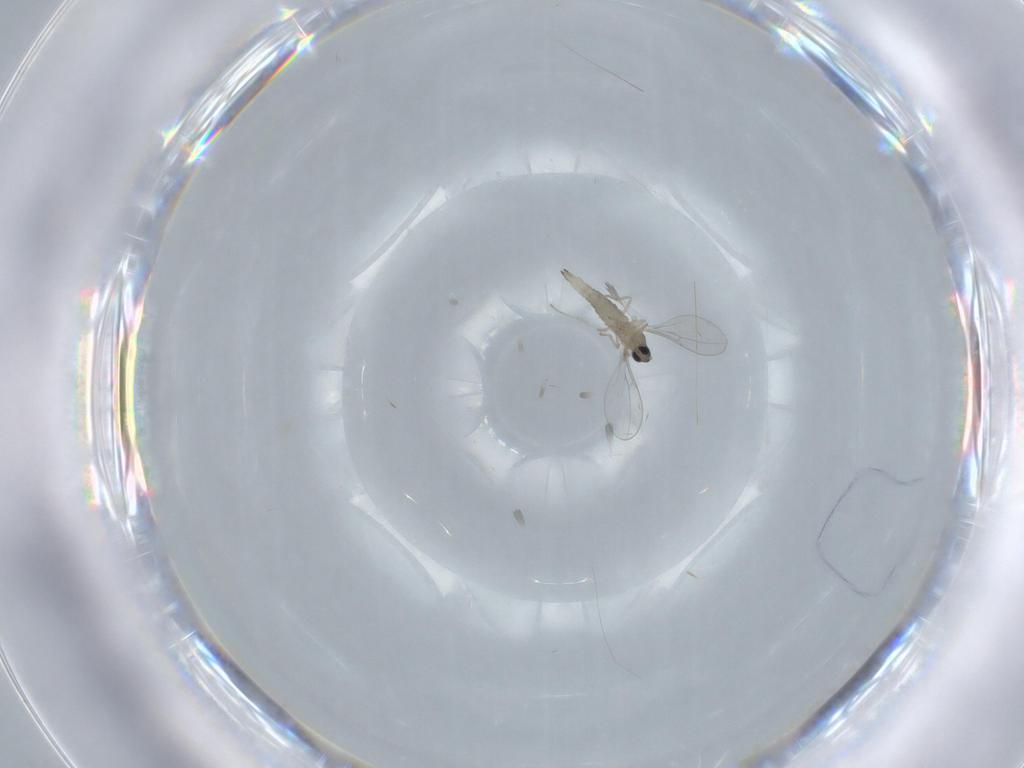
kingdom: Animalia
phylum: Arthropoda
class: Insecta
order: Diptera
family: Cecidomyiidae
